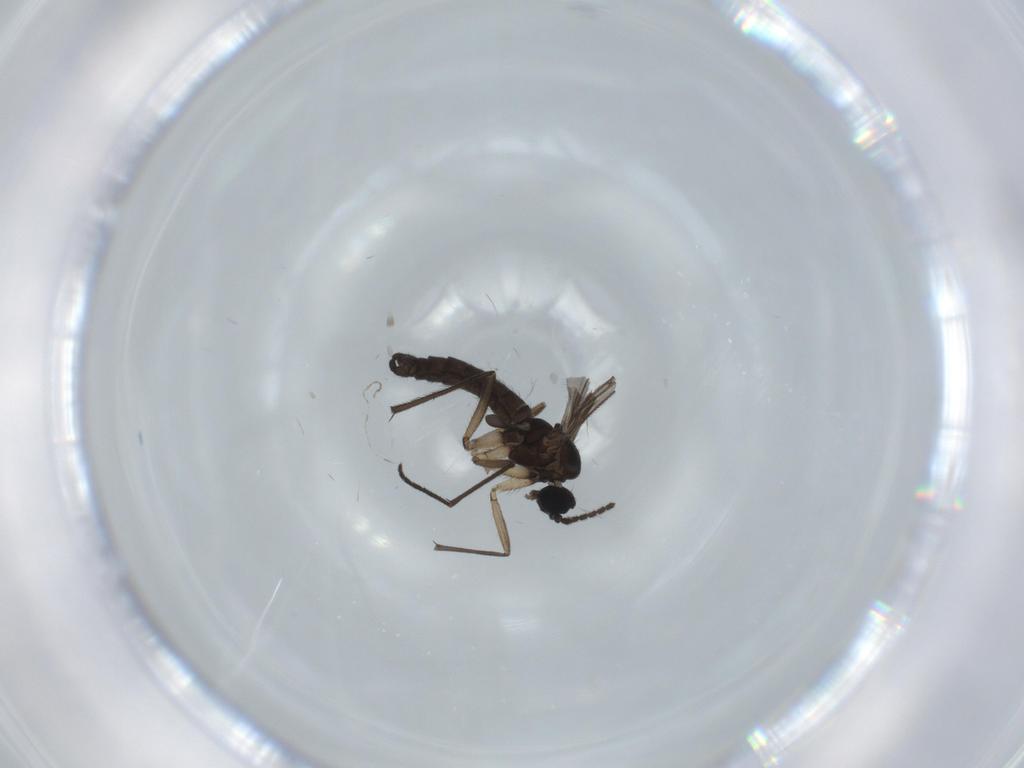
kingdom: Animalia
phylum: Arthropoda
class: Insecta
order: Diptera
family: Sciaridae
